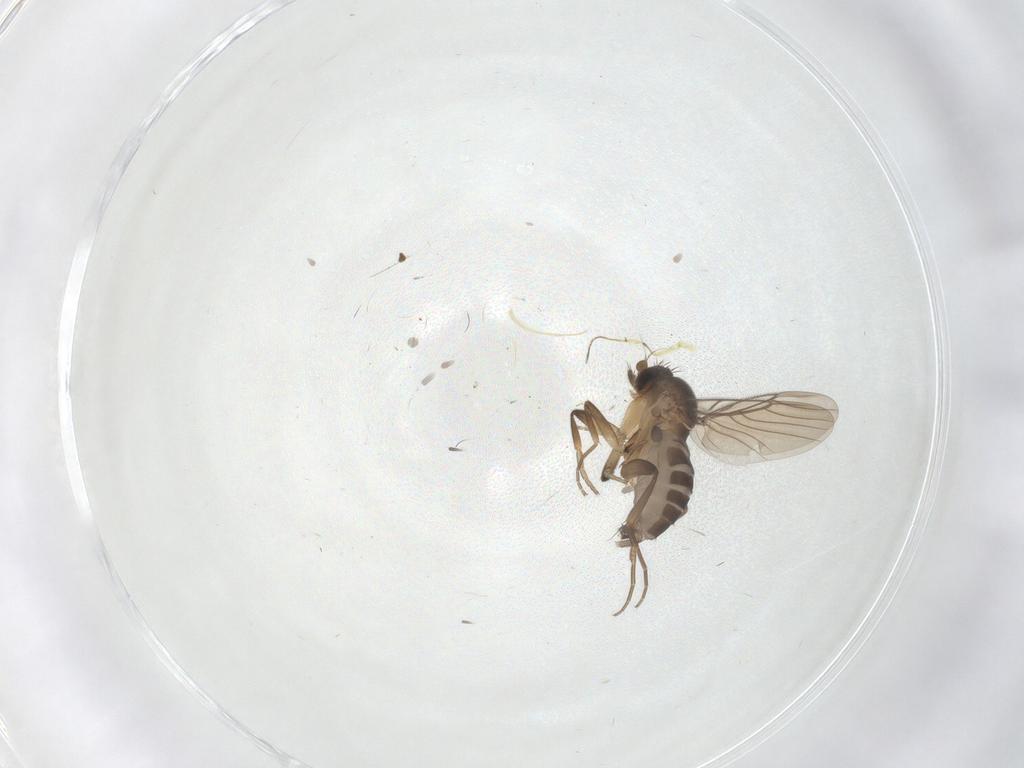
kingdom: Animalia
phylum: Arthropoda
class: Insecta
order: Diptera
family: Phoridae
